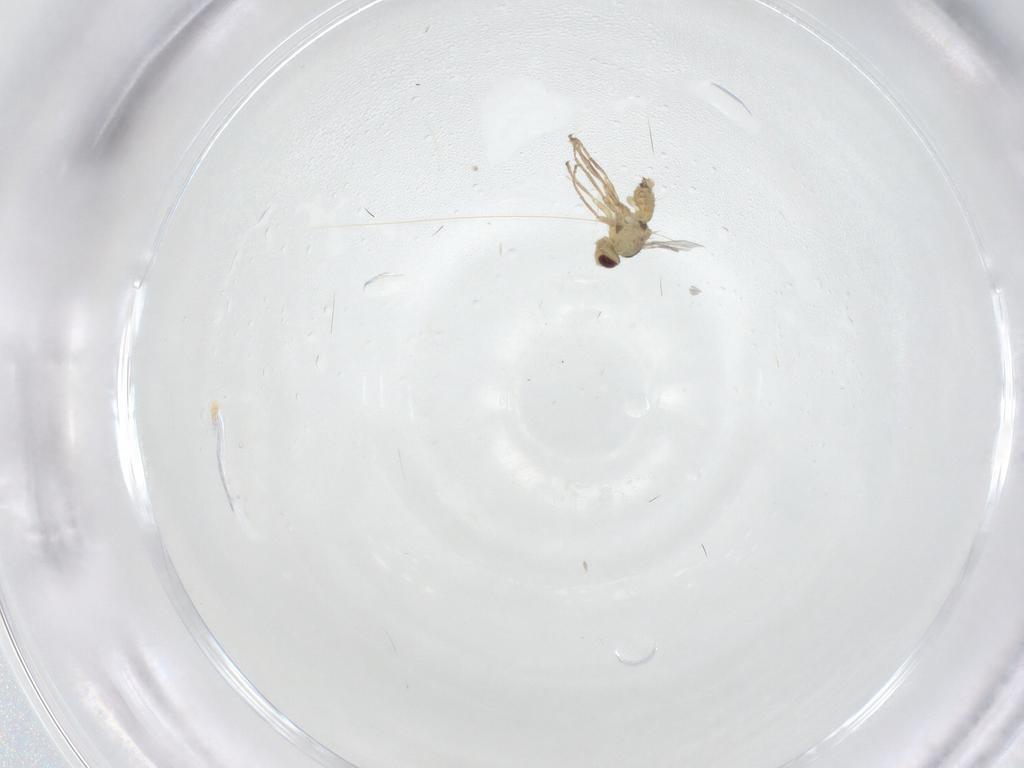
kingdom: Animalia
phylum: Arthropoda
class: Insecta
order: Diptera
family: Agromyzidae
